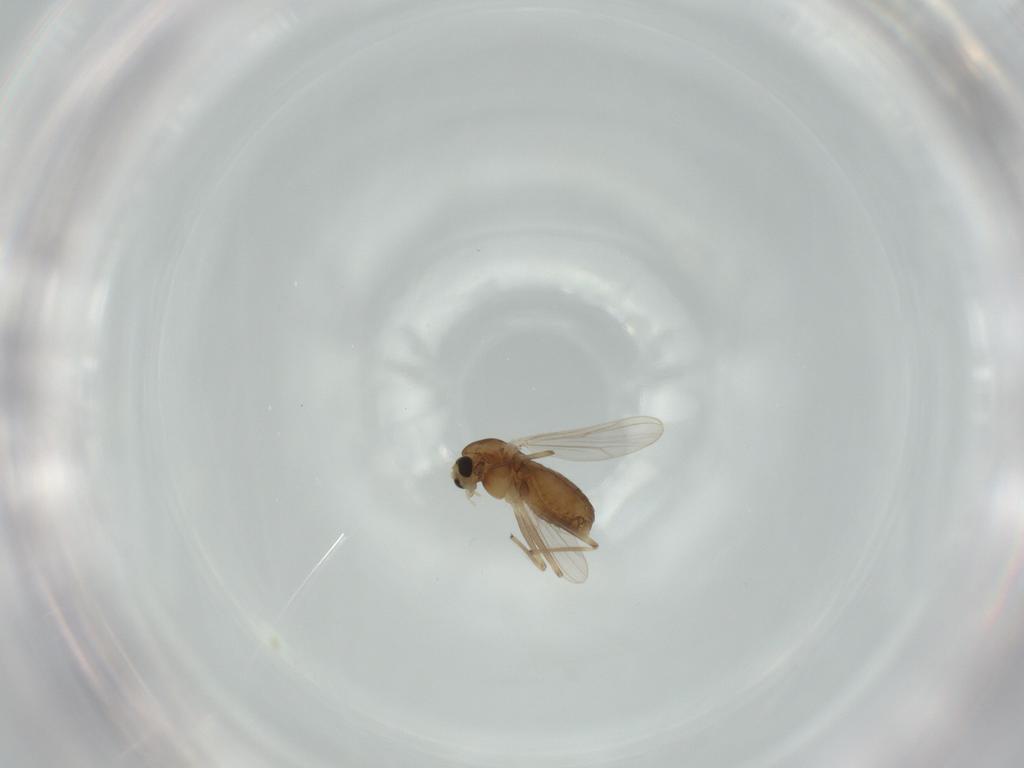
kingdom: Animalia
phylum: Arthropoda
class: Insecta
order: Diptera
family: Chironomidae
